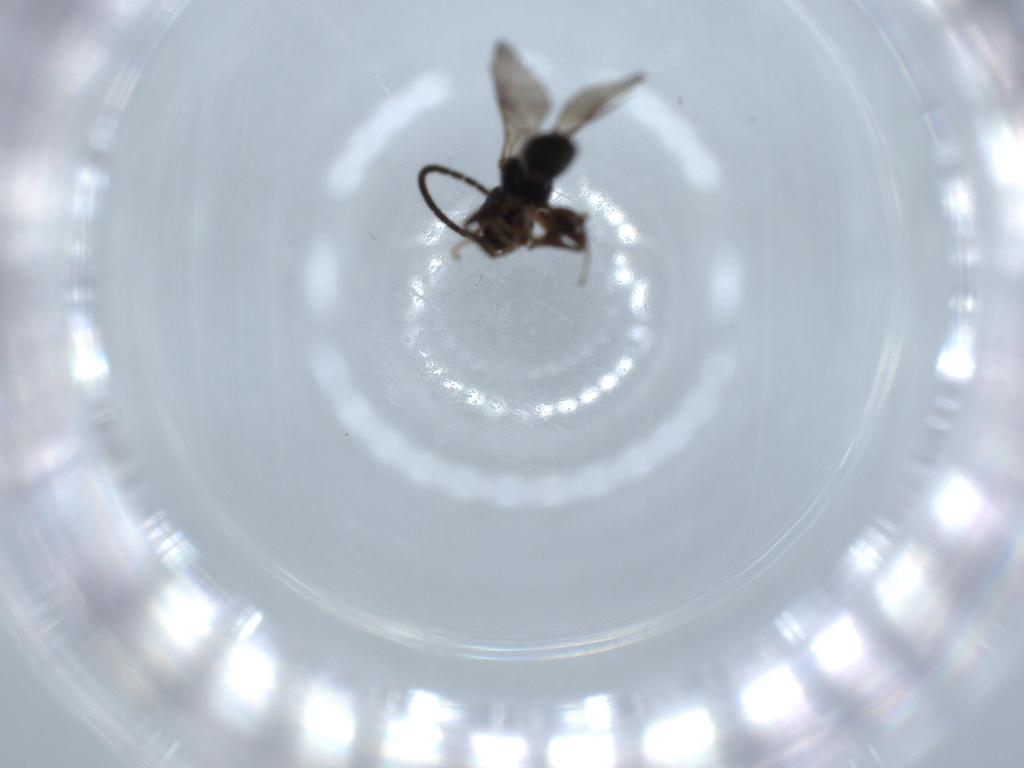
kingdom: Animalia
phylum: Arthropoda
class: Insecta
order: Hymenoptera
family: Bethylidae
